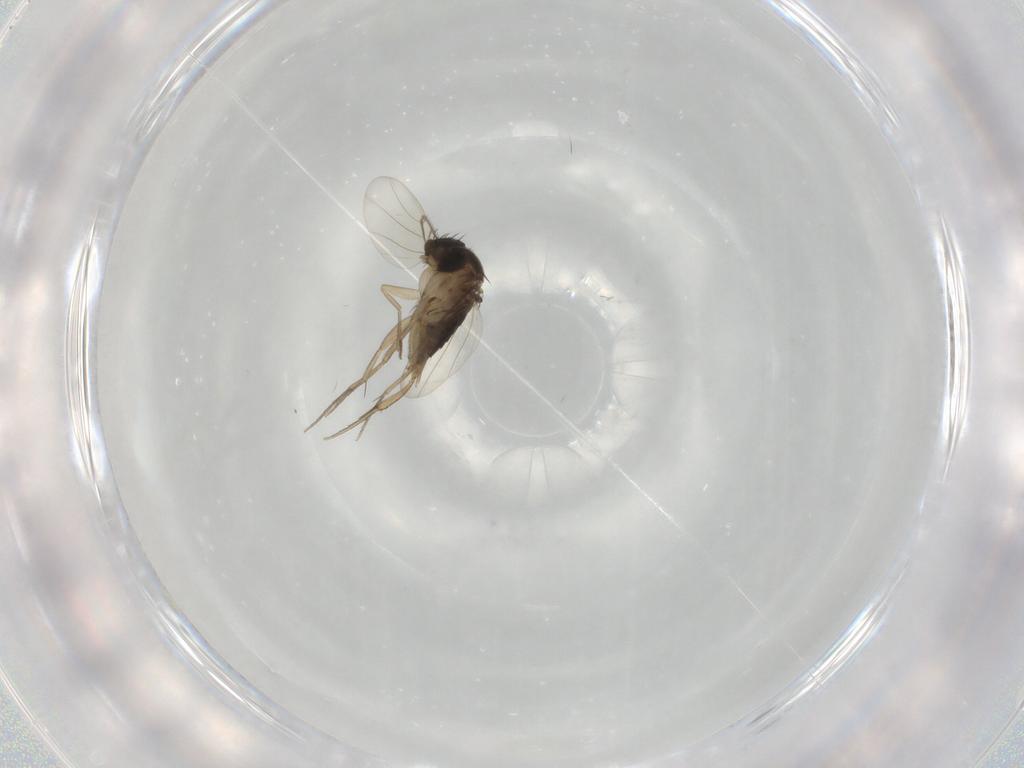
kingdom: Animalia
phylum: Arthropoda
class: Insecta
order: Diptera
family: Phoridae
